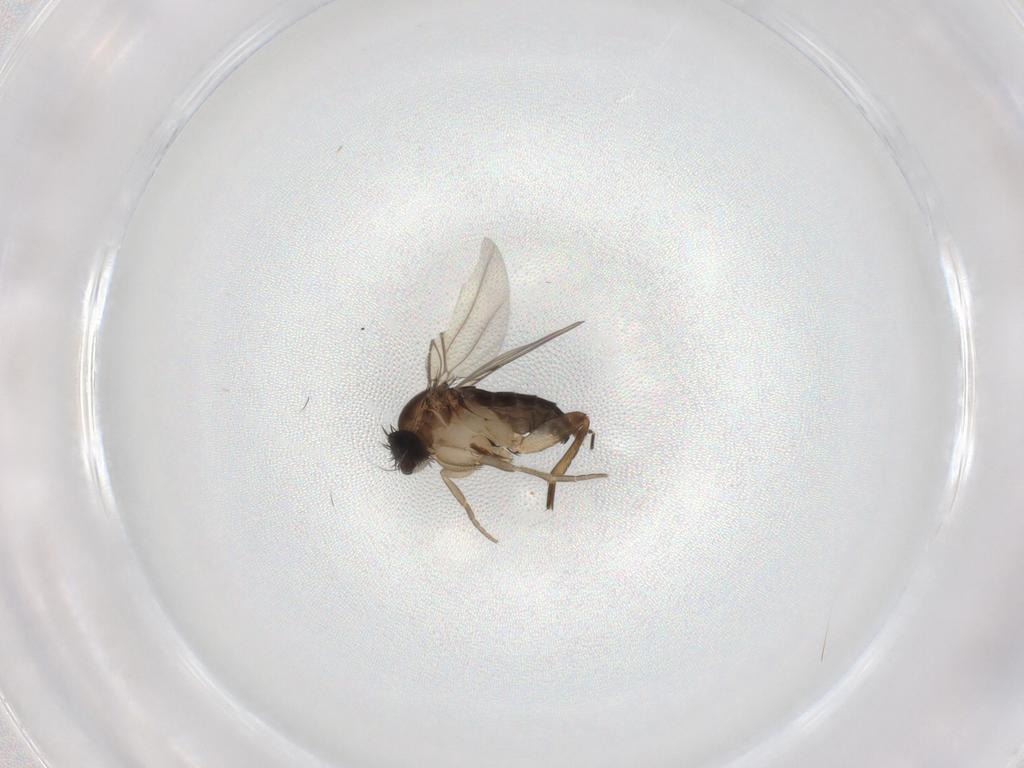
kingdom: Animalia
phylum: Arthropoda
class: Insecta
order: Diptera
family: Phoridae
